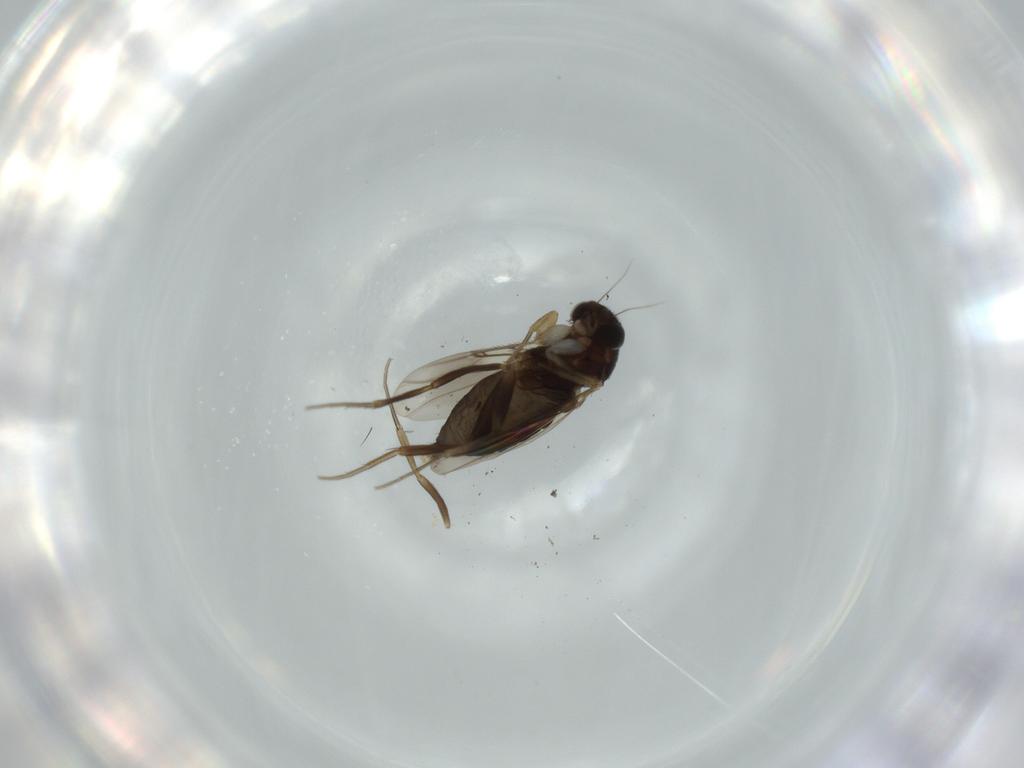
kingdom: Animalia
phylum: Arthropoda
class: Insecta
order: Diptera
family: Phoridae
